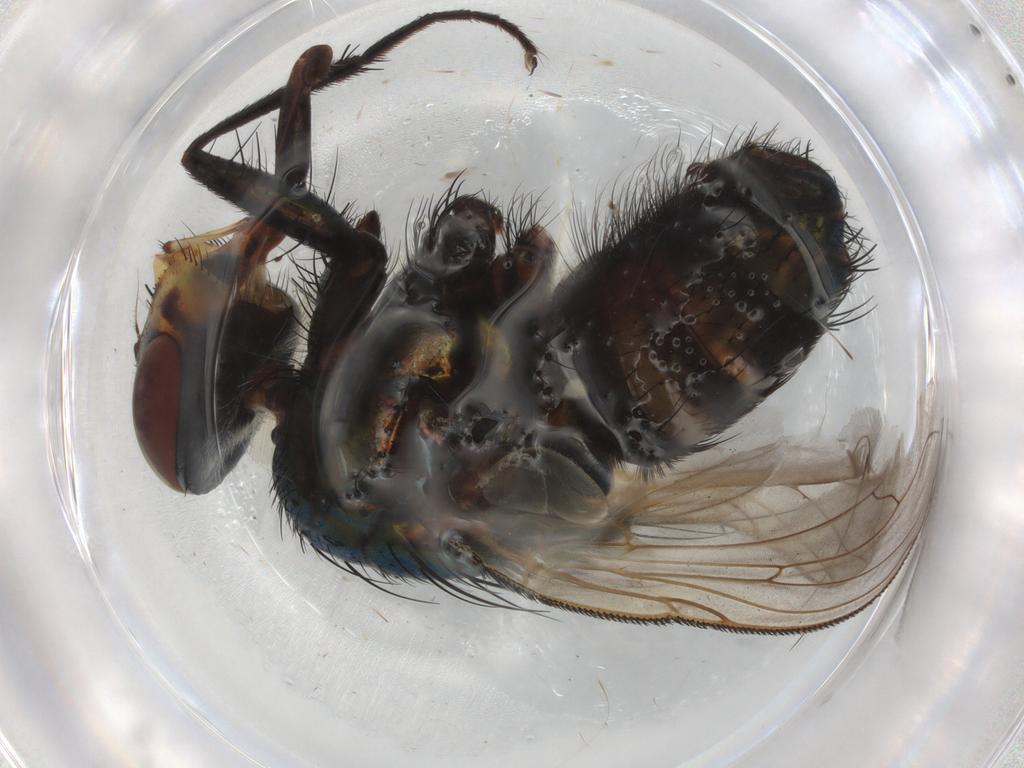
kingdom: Animalia
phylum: Arthropoda
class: Insecta
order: Diptera
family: Phoridae
